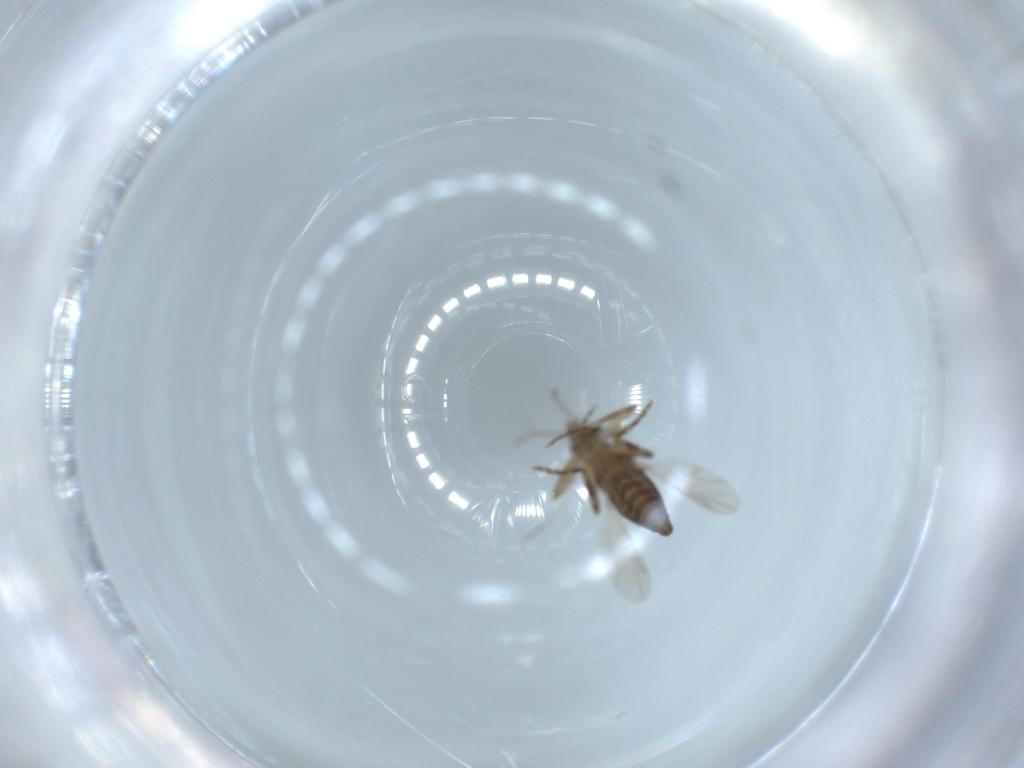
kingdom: Animalia
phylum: Arthropoda
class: Insecta
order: Diptera
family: Ceratopogonidae
